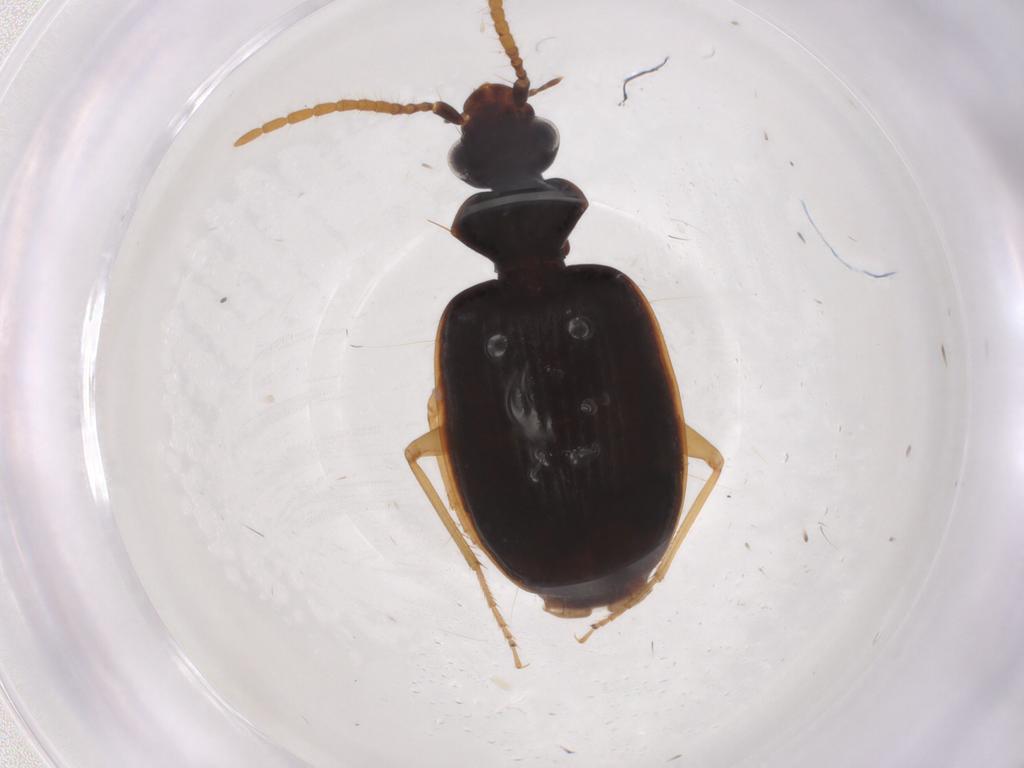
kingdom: Animalia
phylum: Arthropoda
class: Insecta
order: Coleoptera
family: Carabidae
